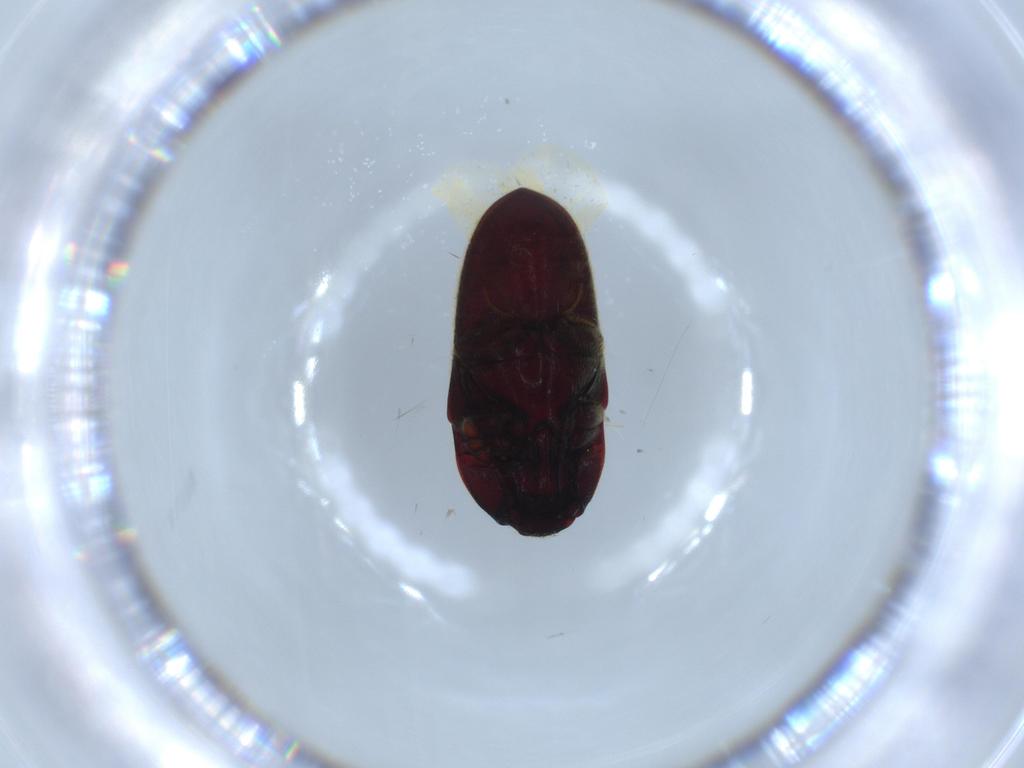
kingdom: Animalia
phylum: Arthropoda
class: Insecta
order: Coleoptera
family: Throscidae
